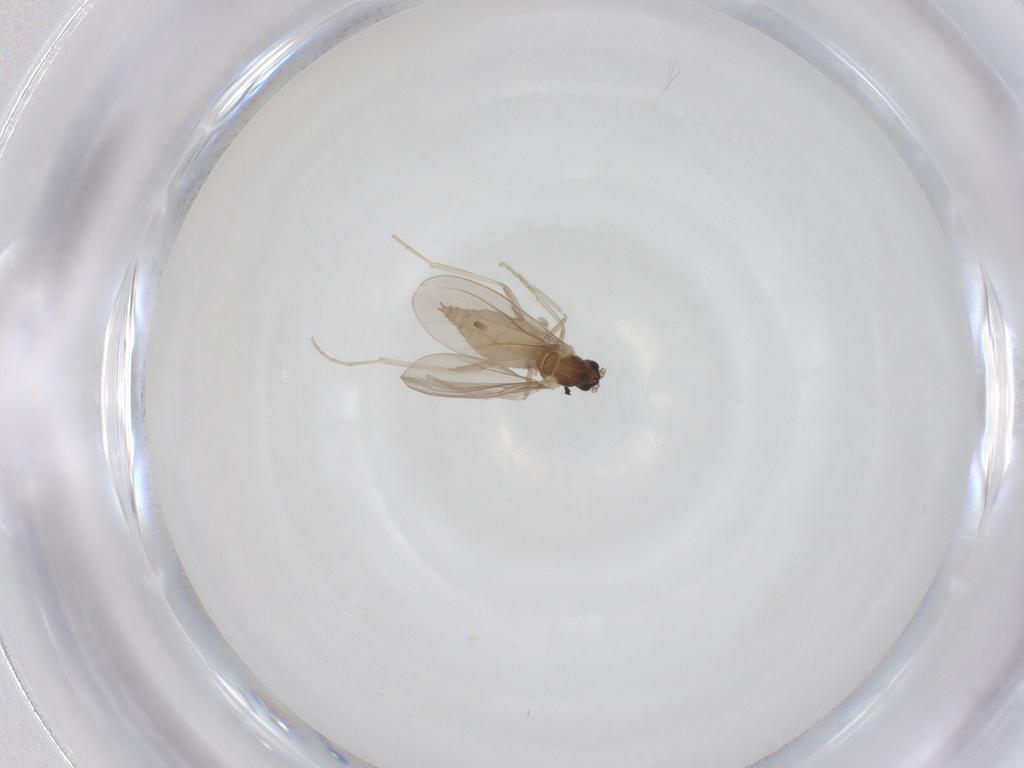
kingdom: Animalia
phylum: Arthropoda
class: Insecta
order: Diptera
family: Cecidomyiidae
